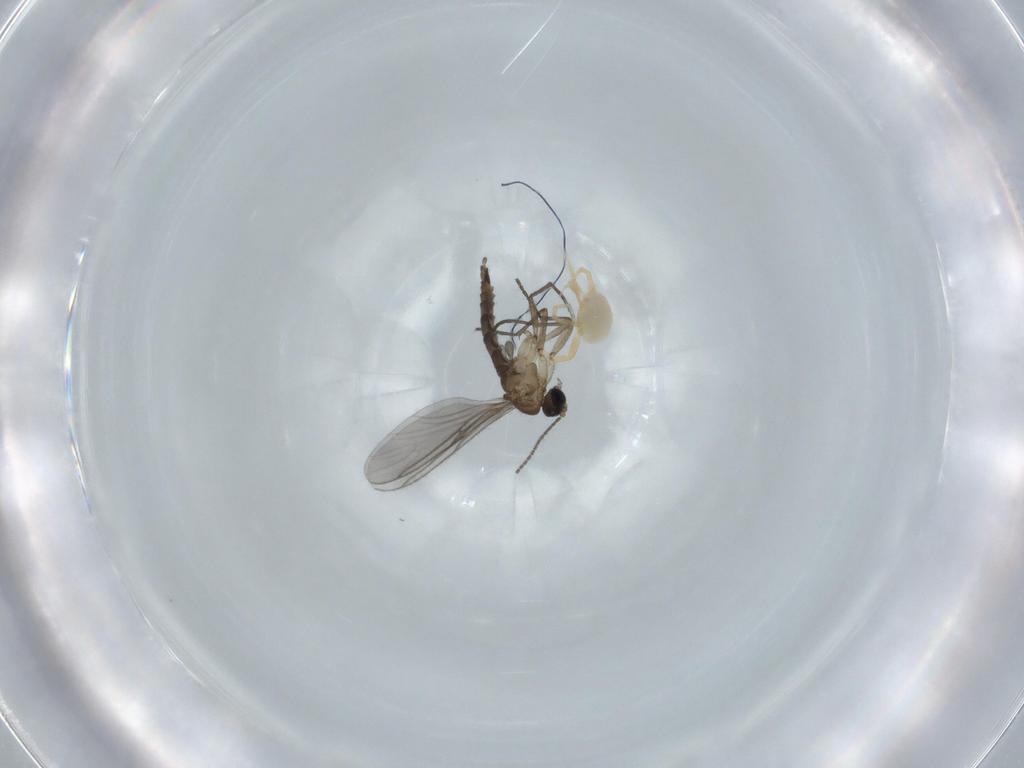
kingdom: Animalia
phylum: Arthropoda
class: Insecta
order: Diptera
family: Sciaridae
